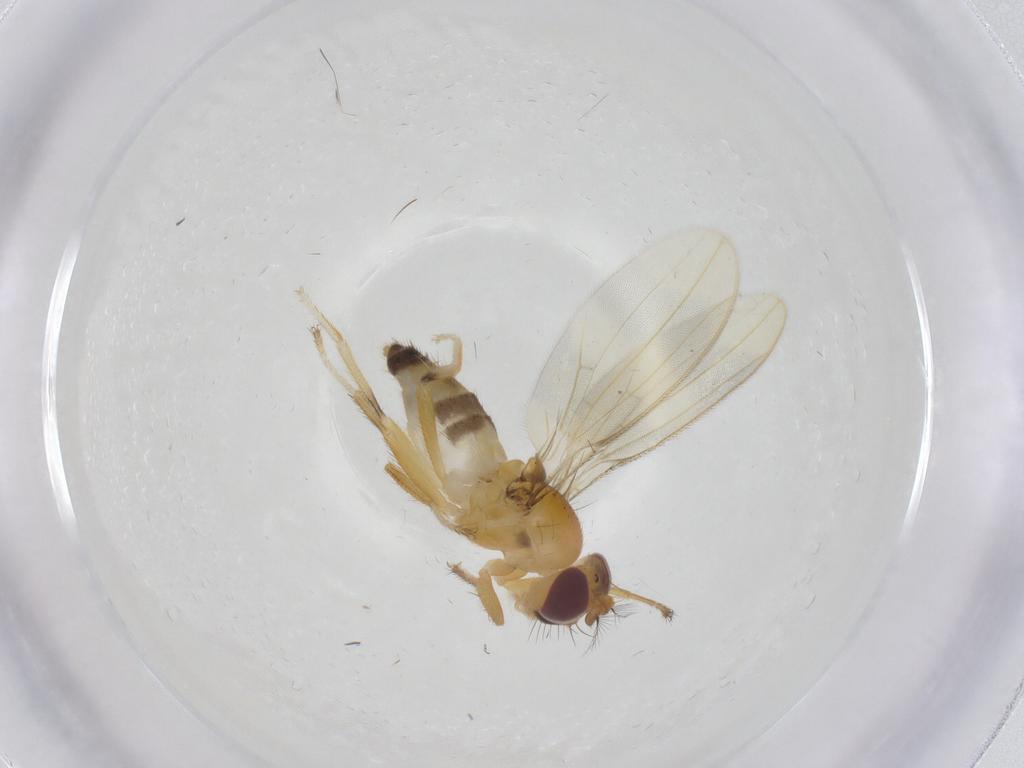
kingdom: Animalia
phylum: Arthropoda
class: Insecta
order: Diptera
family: Periscelididae
